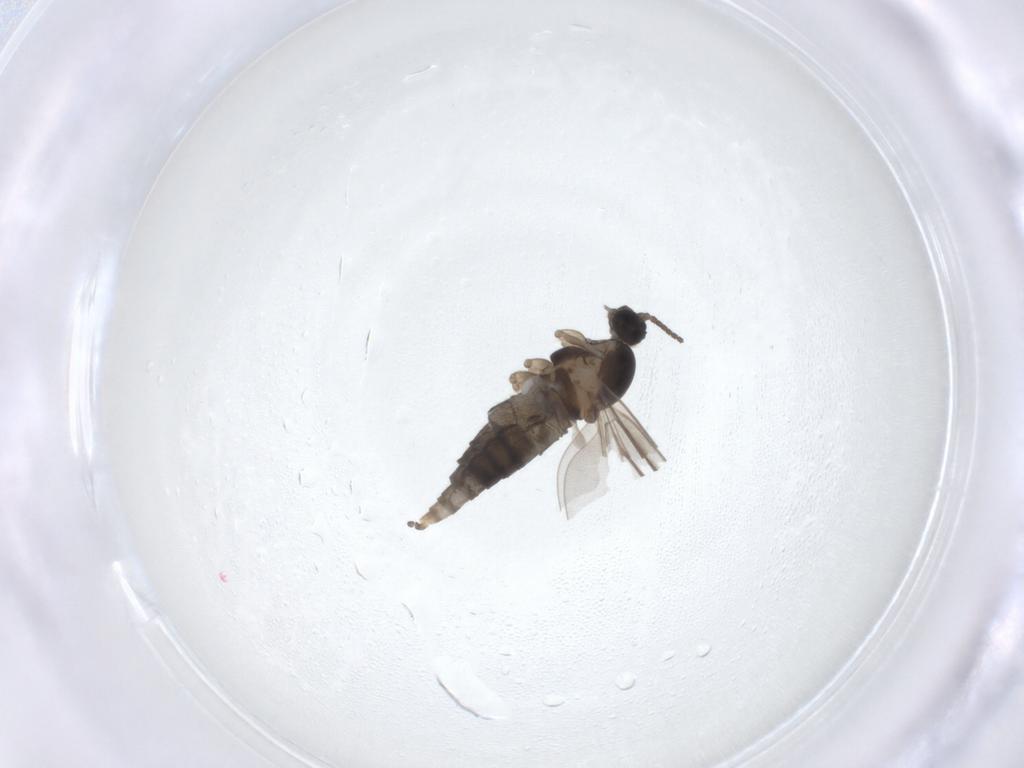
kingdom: Animalia
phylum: Arthropoda
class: Insecta
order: Diptera
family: Cecidomyiidae
